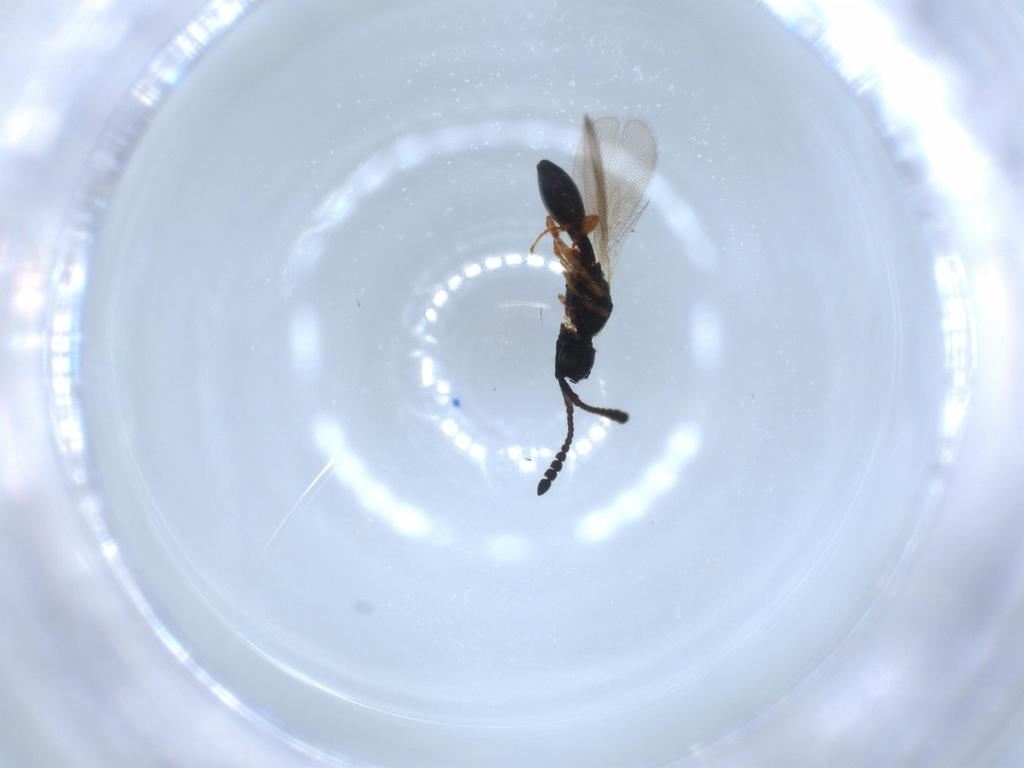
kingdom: Animalia
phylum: Arthropoda
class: Insecta
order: Hymenoptera
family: Diapriidae
